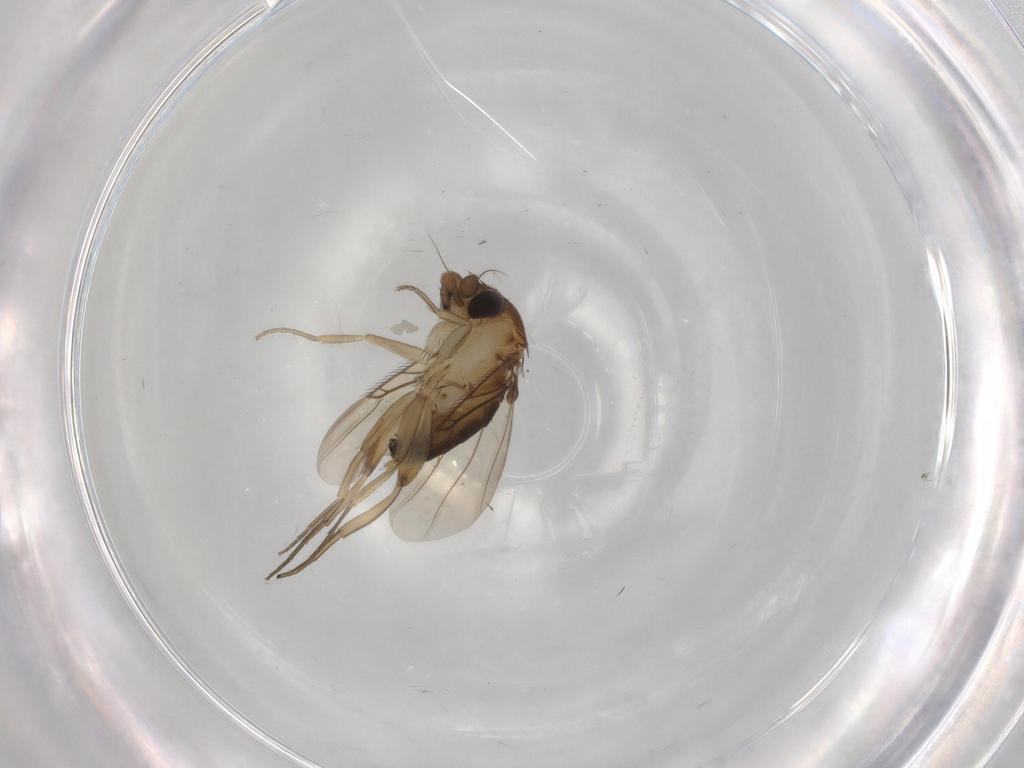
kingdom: Animalia
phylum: Arthropoda
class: Insecta
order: Diptera
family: Phoridae
